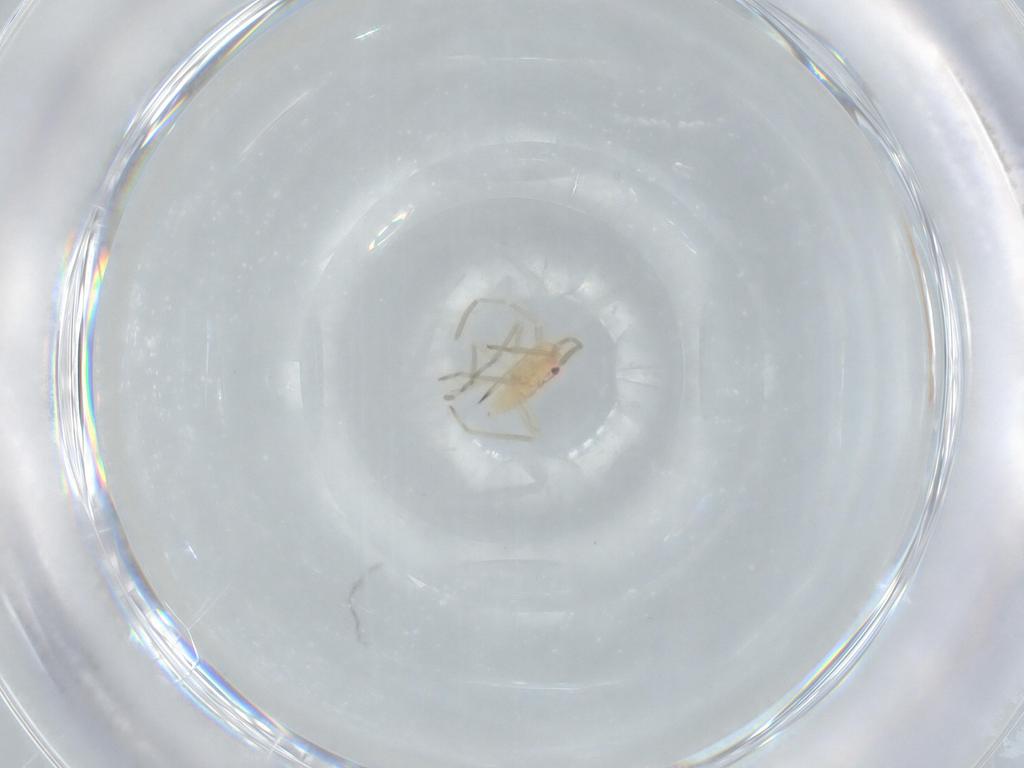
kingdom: Animalia
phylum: Arthropoda
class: Insecta
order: Hemiptera
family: Miridae
